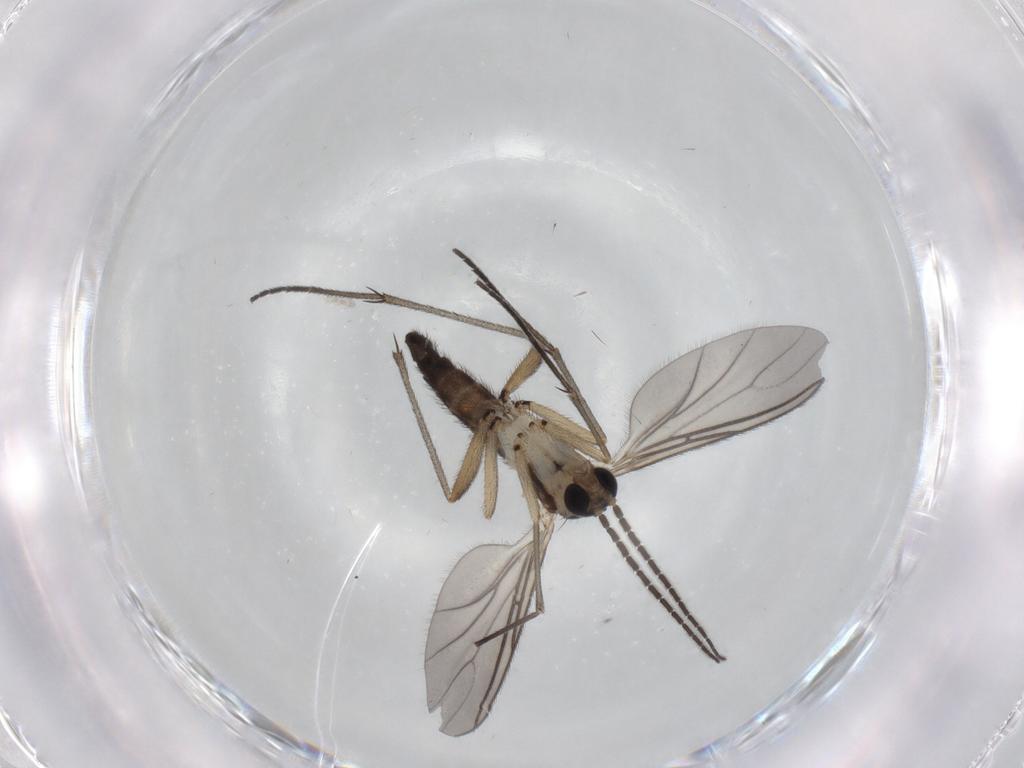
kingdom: Animalia
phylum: Arthropoda
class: Insecta
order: Diptera
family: Sciaridae
